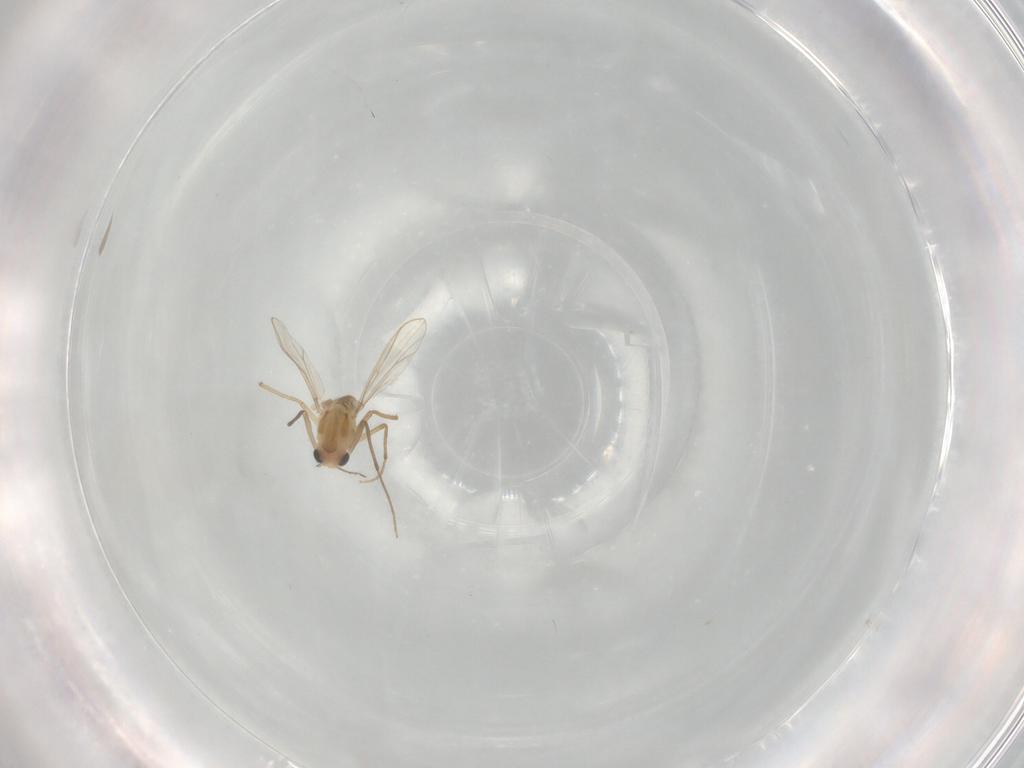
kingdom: Animalia
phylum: Arthropoda
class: Insecta
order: Diptera
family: Chironomidae
